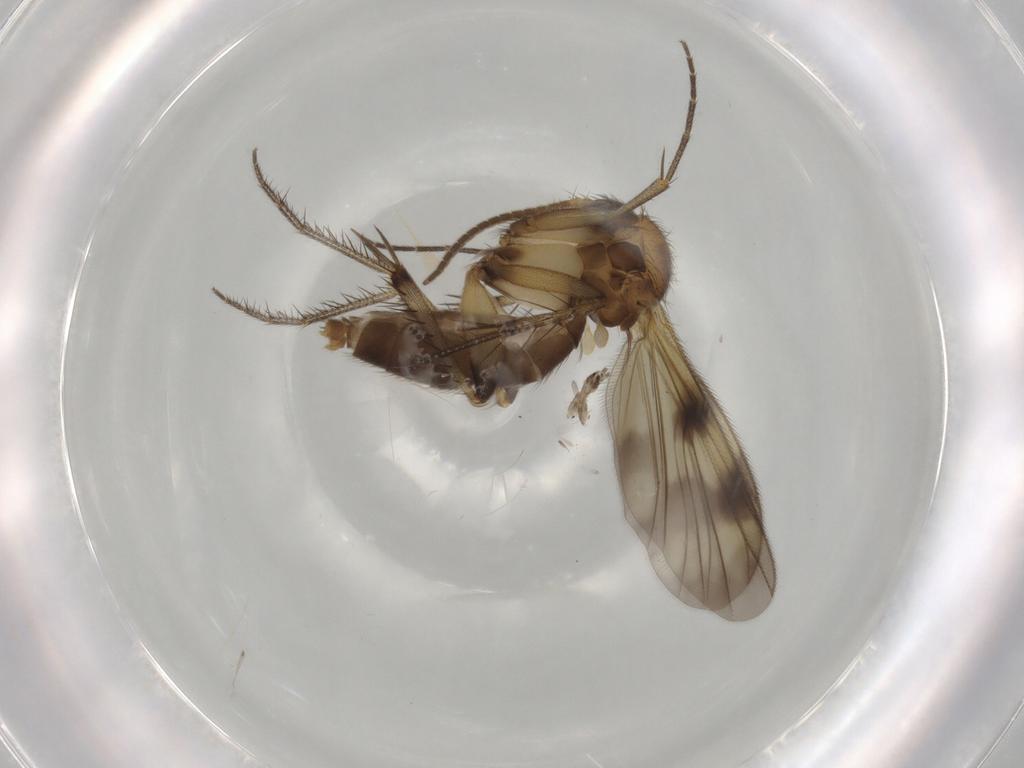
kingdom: Animalia
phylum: Arthropoda
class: Insecta
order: Diptera
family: Sciaridae
